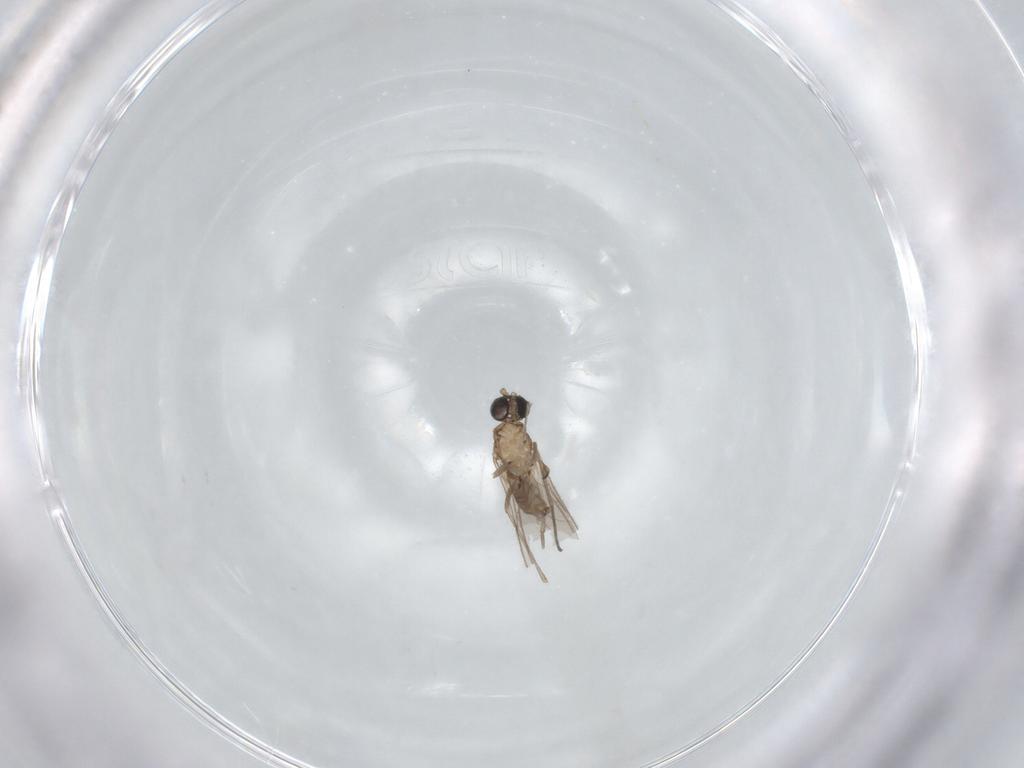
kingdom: Animalia
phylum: Arthropoda
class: Insecta
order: Diptera
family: Sciaridae
